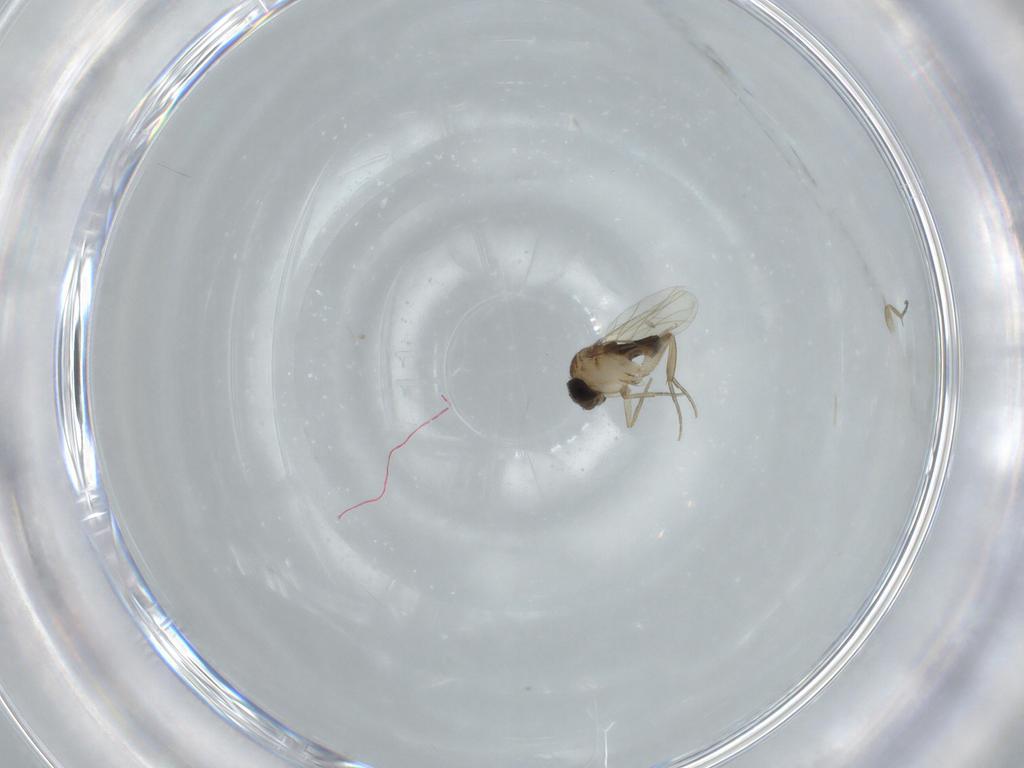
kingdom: Animalia
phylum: Arthropoda
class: Insecta
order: Diptera
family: Phoridae
